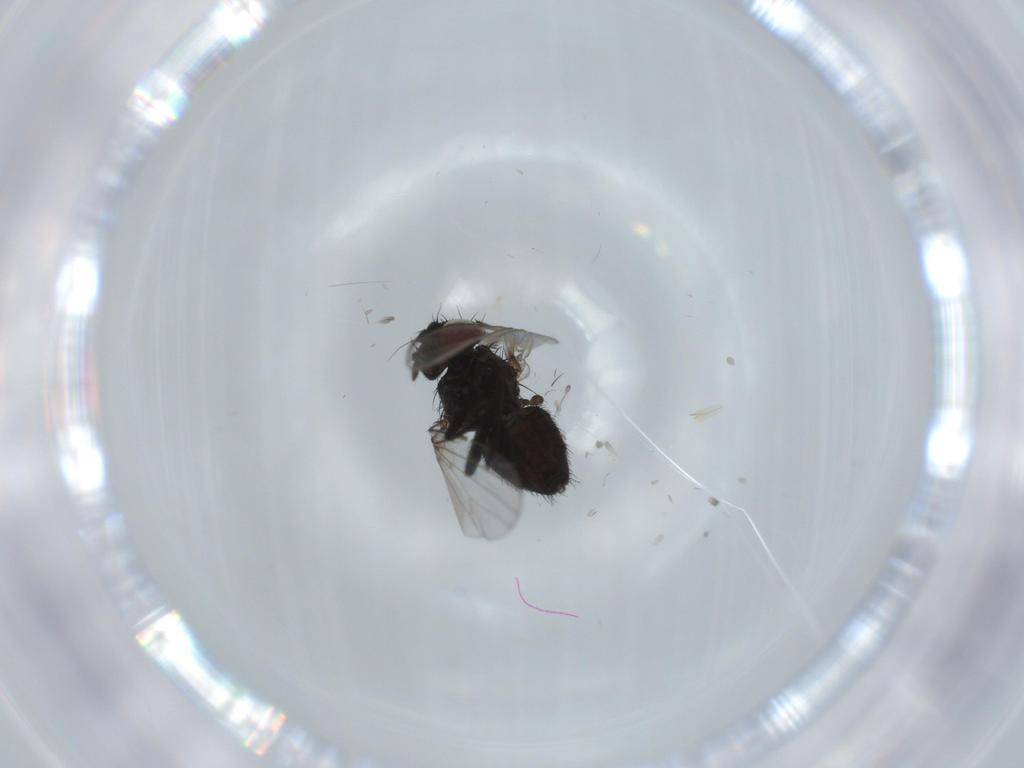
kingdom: Animalia
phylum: Arthropoda
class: Insecta
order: Diptera
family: Milichiidae
